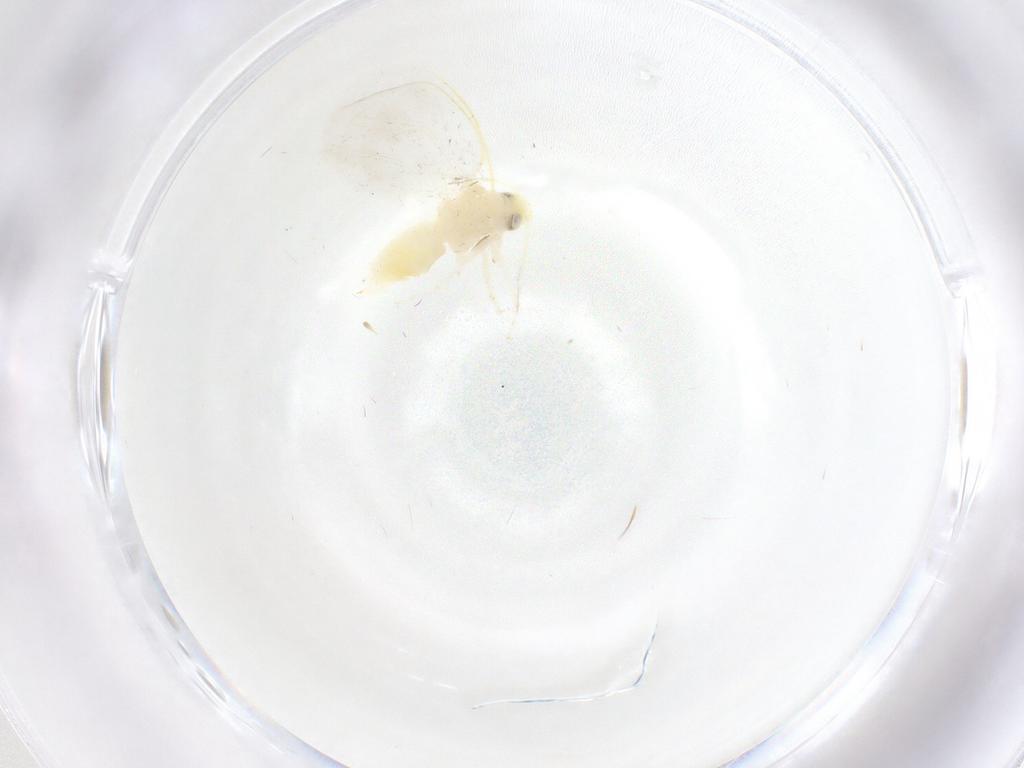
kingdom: Animalia
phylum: Arthropoda
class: Insecta
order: Hemiptera
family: Aleyrodidae
